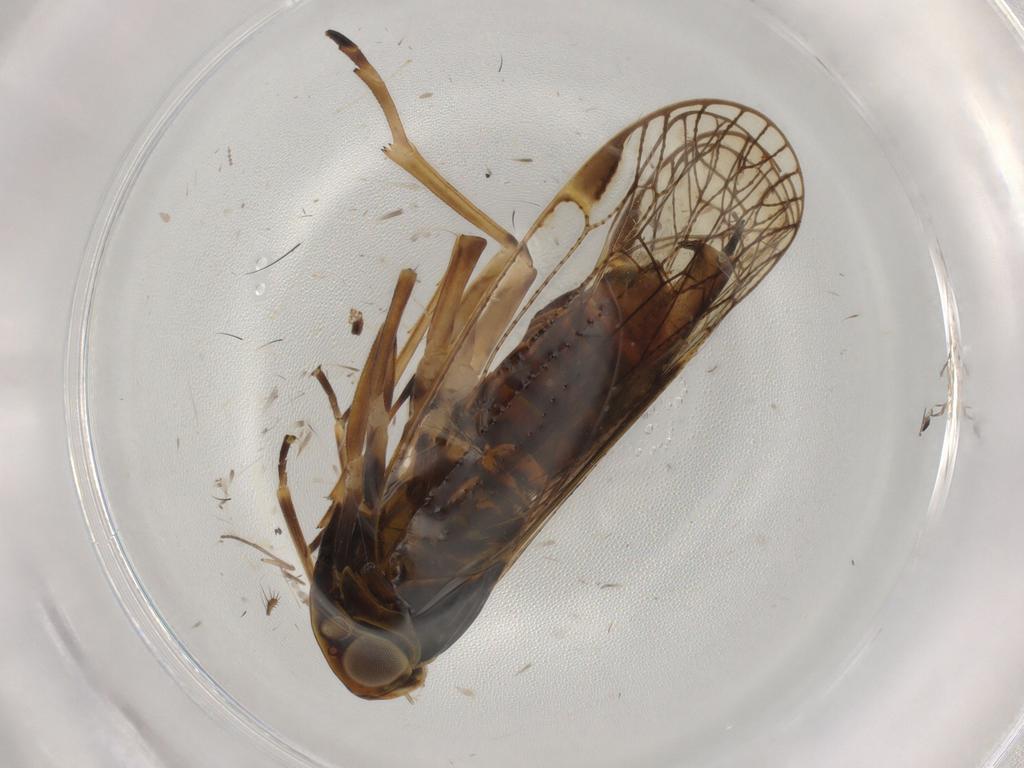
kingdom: Animalia
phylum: Arthropoda
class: Insecta
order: Hemiptera
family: Cixiidae
